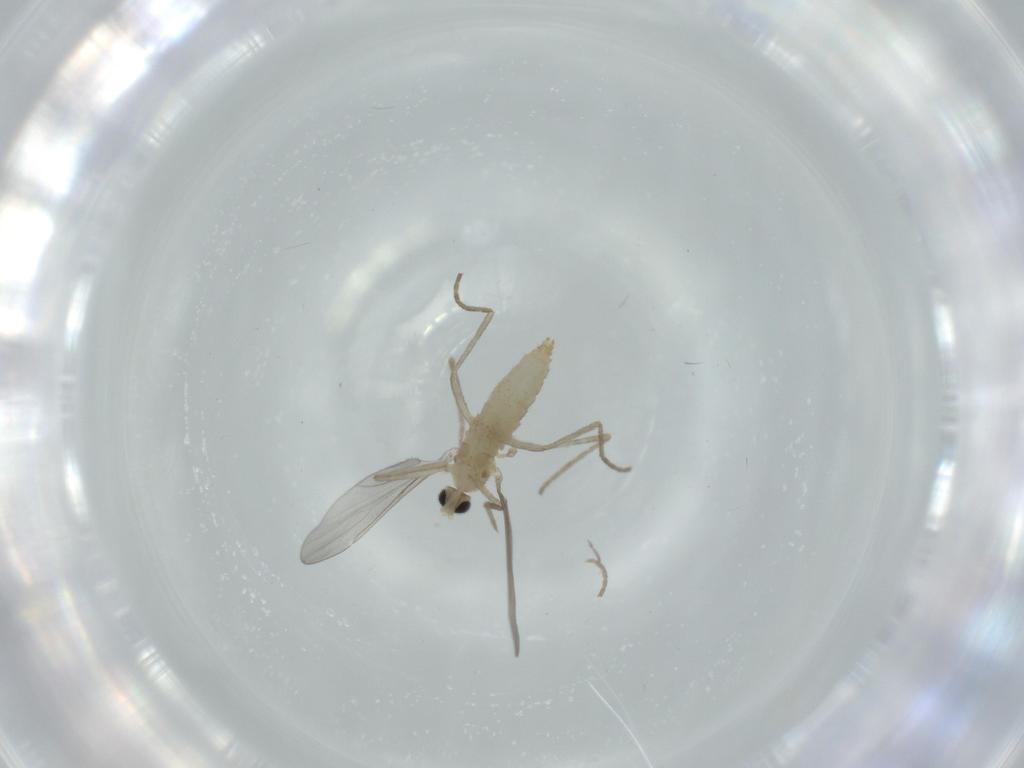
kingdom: Animalia
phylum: Arthropoda
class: Insecta
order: Diptera
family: Cecidomyiidae
